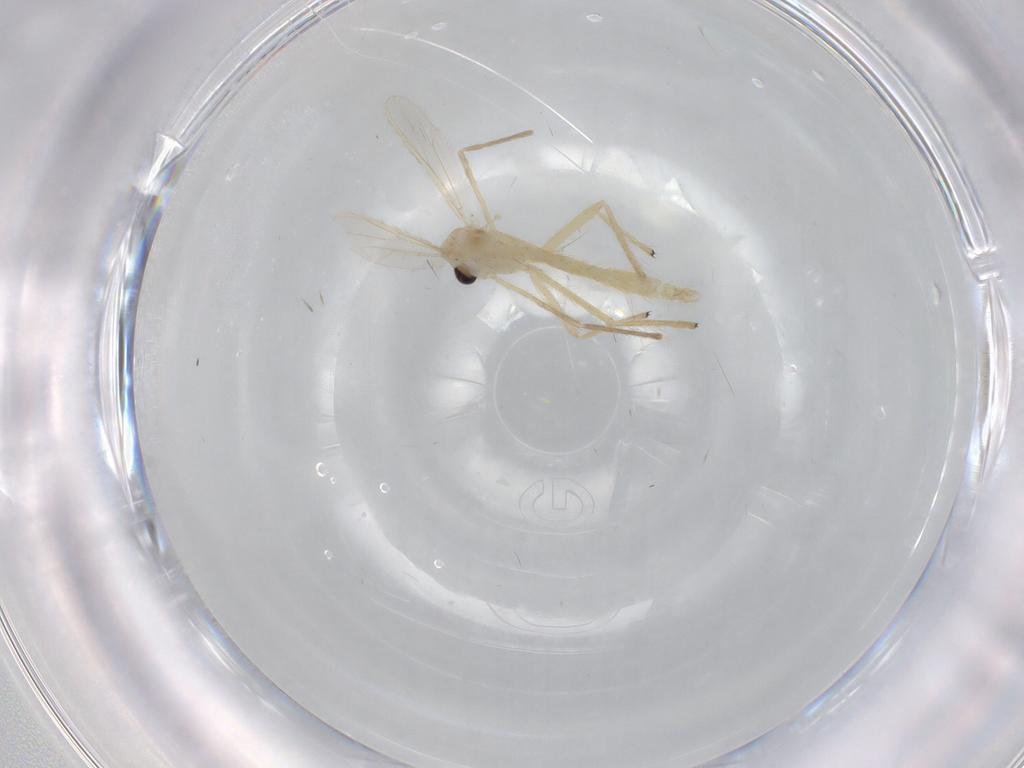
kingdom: Animalia
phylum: Arthropoda
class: Insecta
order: Diptera
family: Chironomidae
